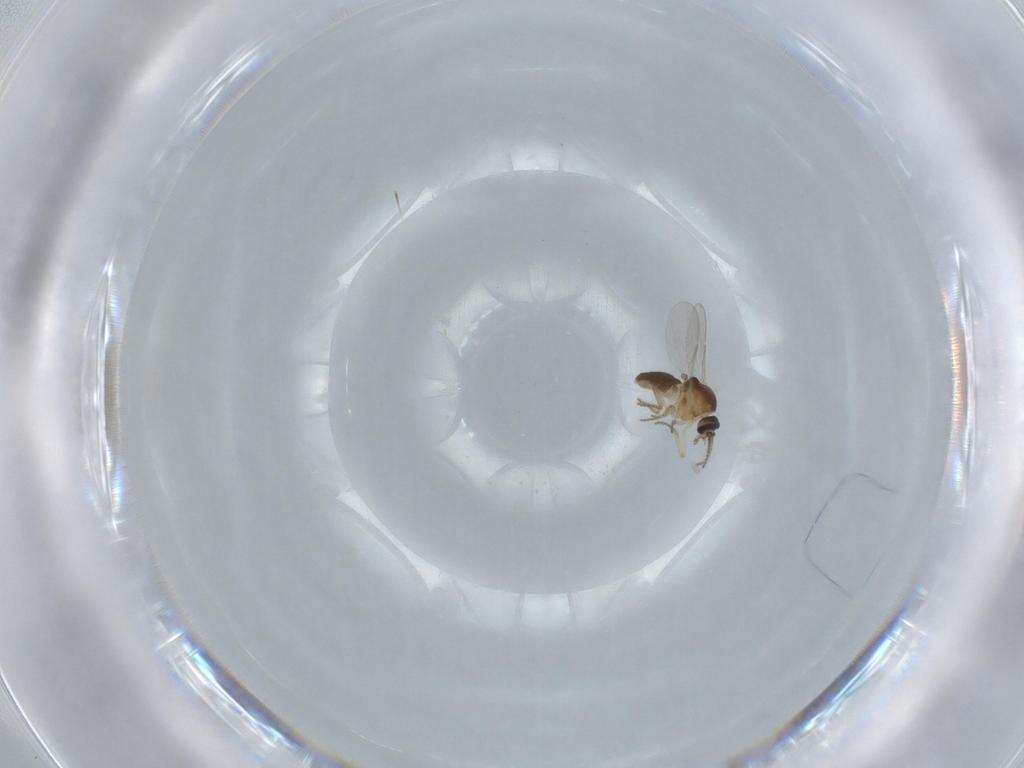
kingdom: Animalia
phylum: Arthropoda
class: Insecta
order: Diptera
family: Ceratopogonidae
